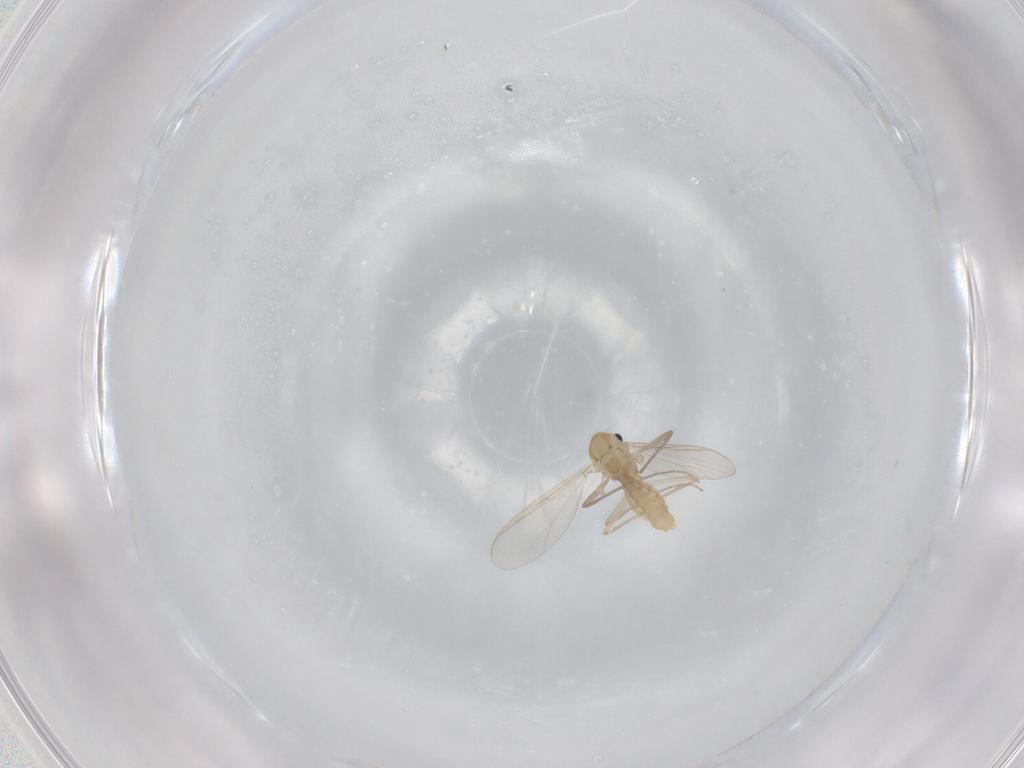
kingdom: Animalia
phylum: Arthropoda
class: Insecta
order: Diptera
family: Chironomidae
